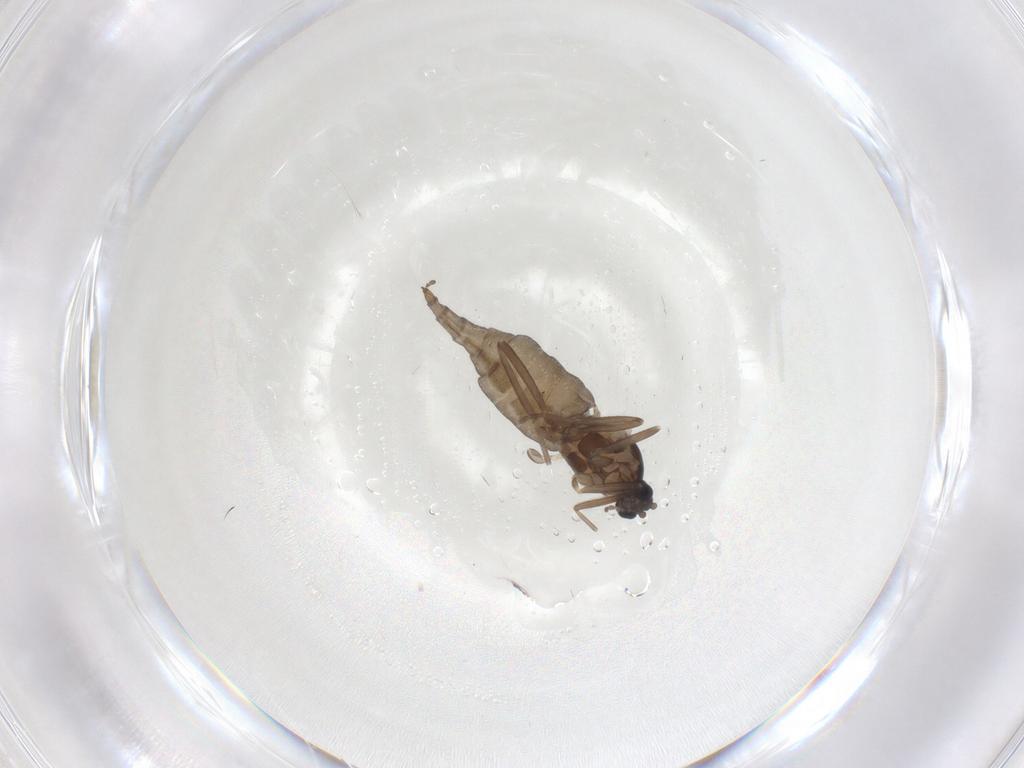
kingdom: Animalia
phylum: Arthropoda
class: Insecta
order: Diptera
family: Cecidomyiidae
